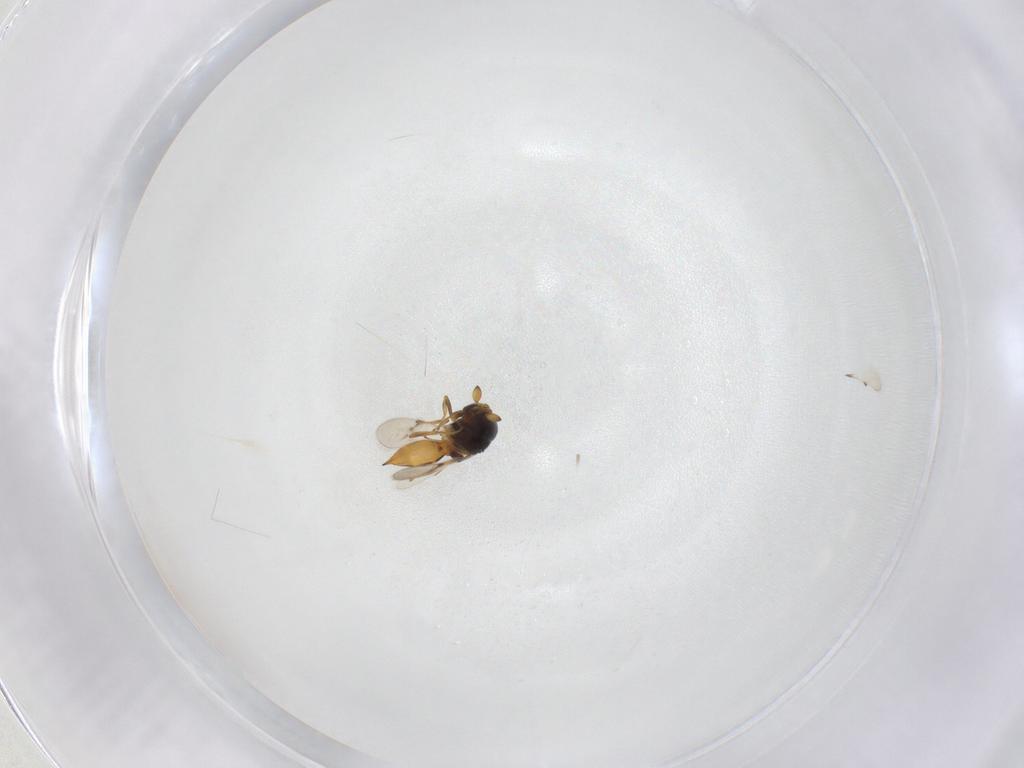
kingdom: Animalia
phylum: Arthropoda
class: Insecta
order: Hymenoptera
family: Scelionidae
